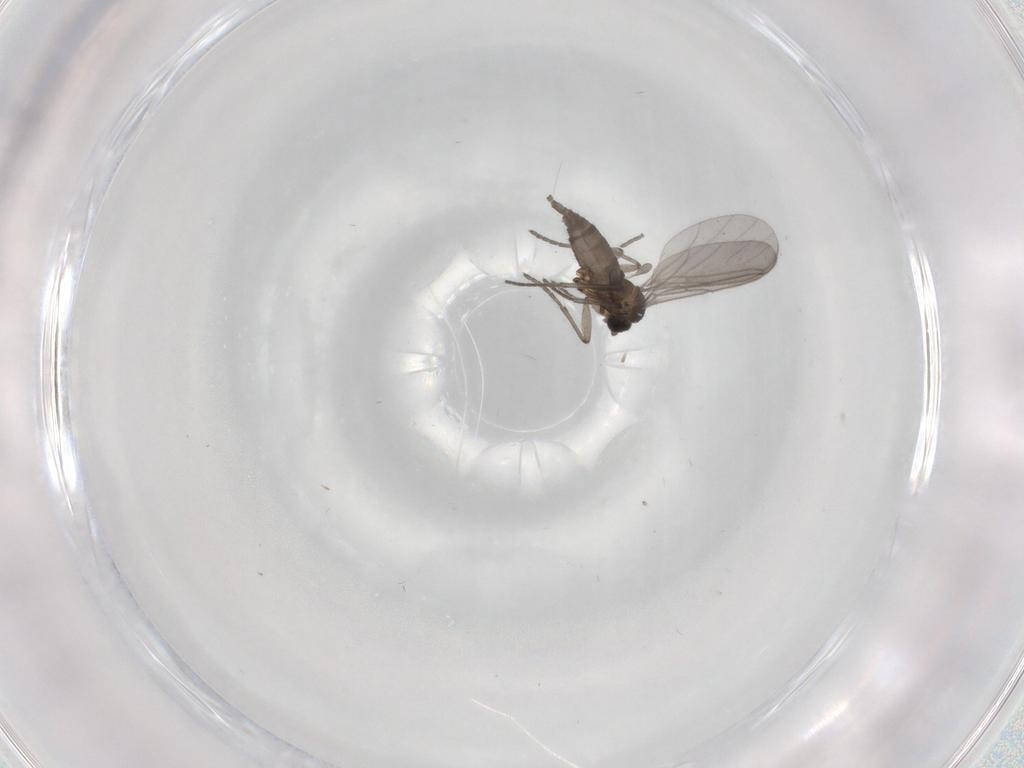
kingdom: Animalia
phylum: Arthropoda
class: Insecta
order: Diptera
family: Sciaridae
